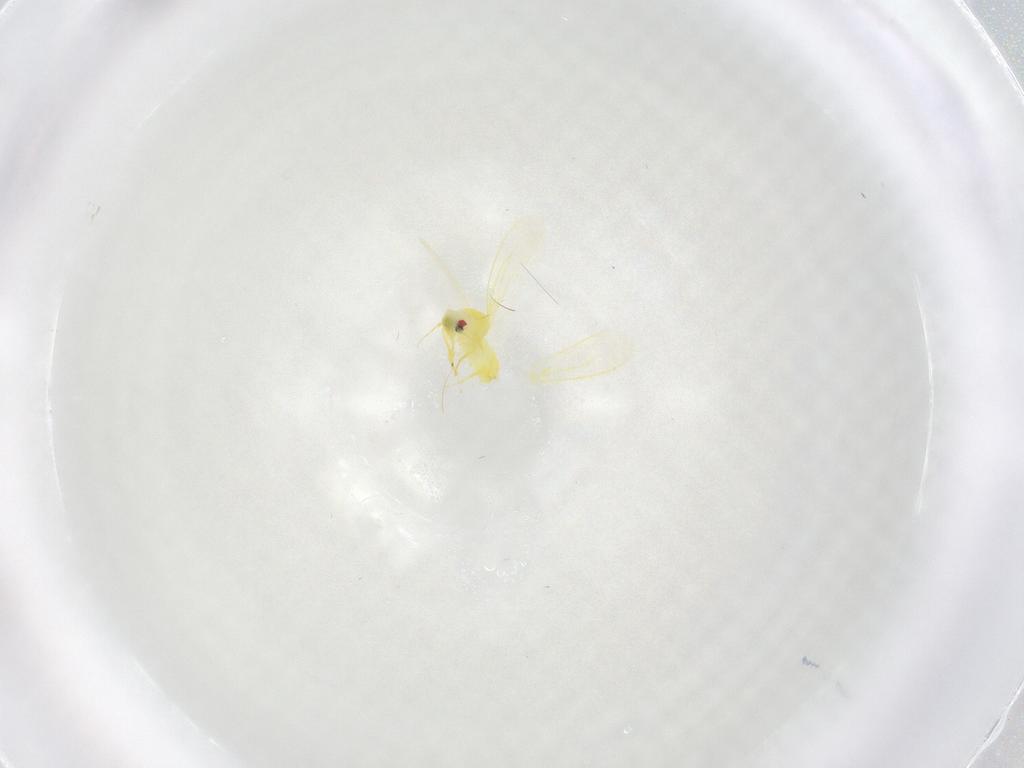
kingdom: Animalia
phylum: Arthropoda
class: Insecta
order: Hemiptera
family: Aleyrodidae
